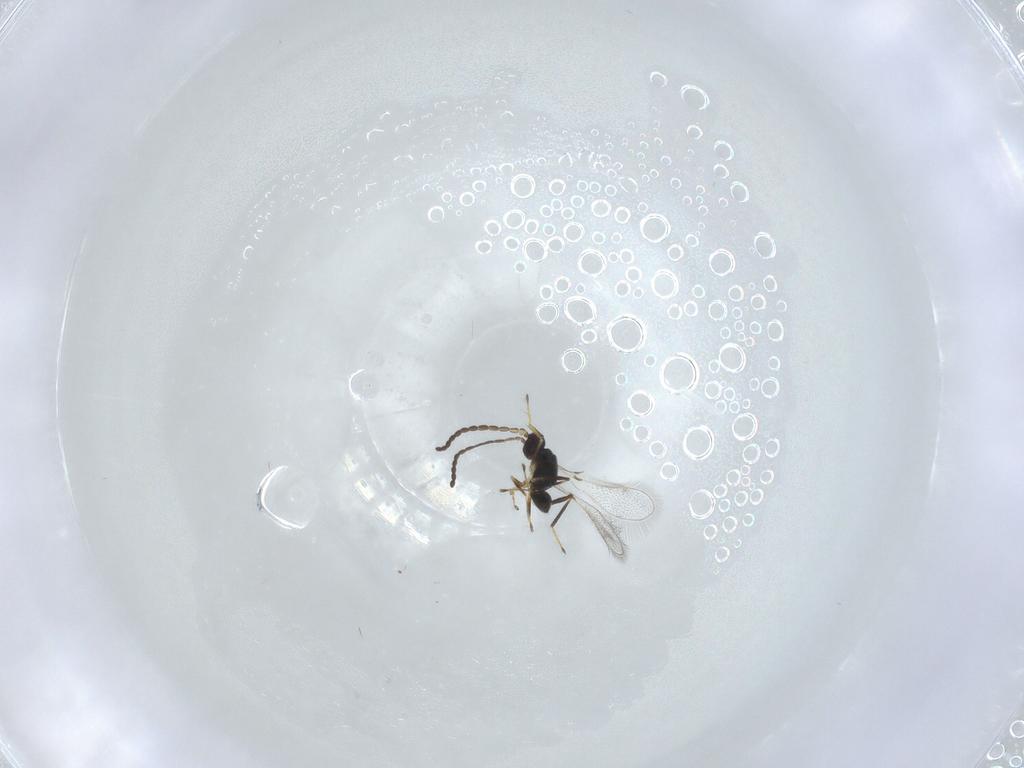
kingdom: Animalia
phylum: Arthropoda
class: Insecta
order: Hymenoptera
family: Mymaridae
